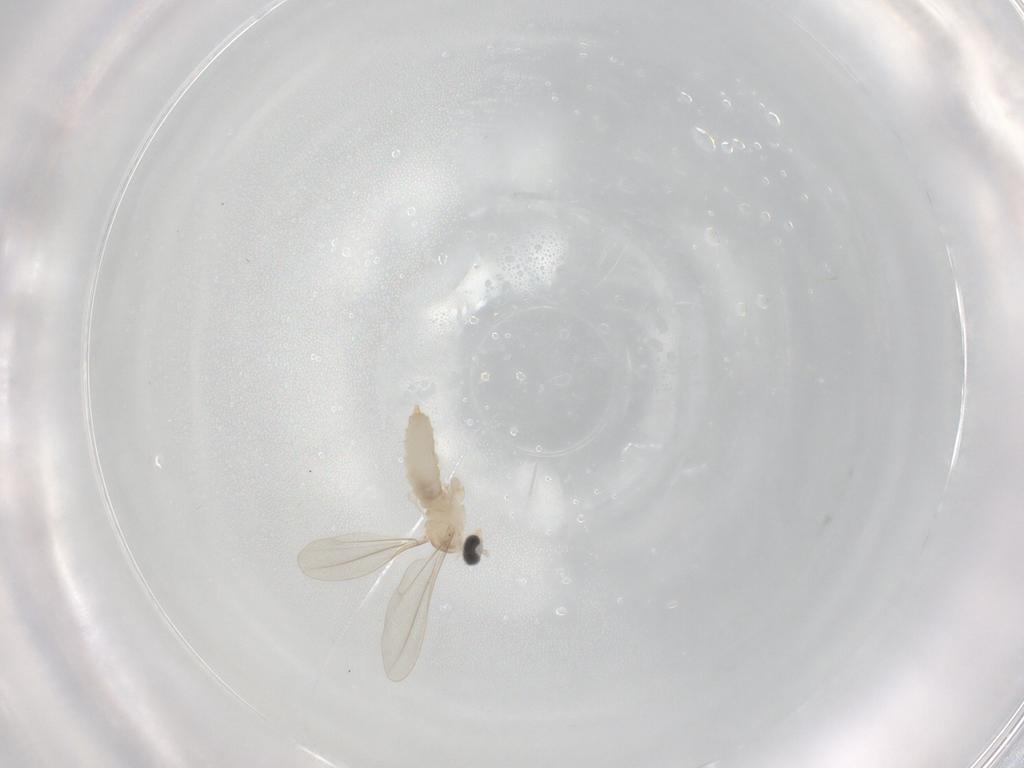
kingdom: Animalia
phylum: Arthropoda
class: Insecta
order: Diptera
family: Cecidomyiidae
